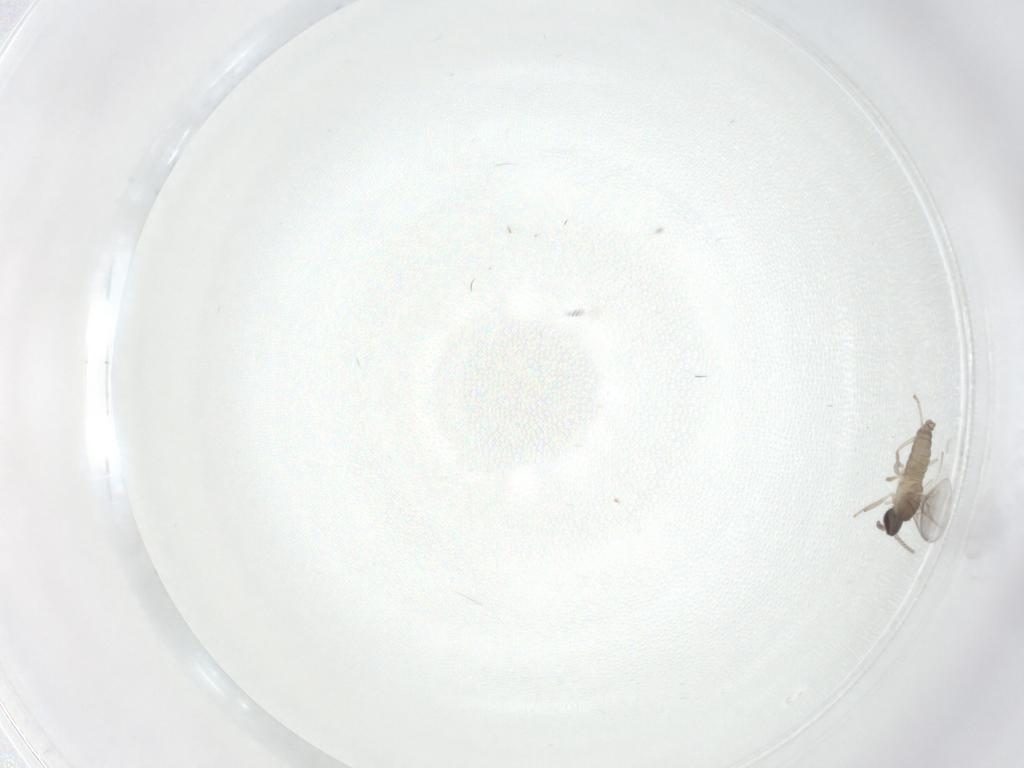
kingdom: Animalia
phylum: Arthropoda
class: Insecta
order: Diptera
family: Cecidomyiidae
